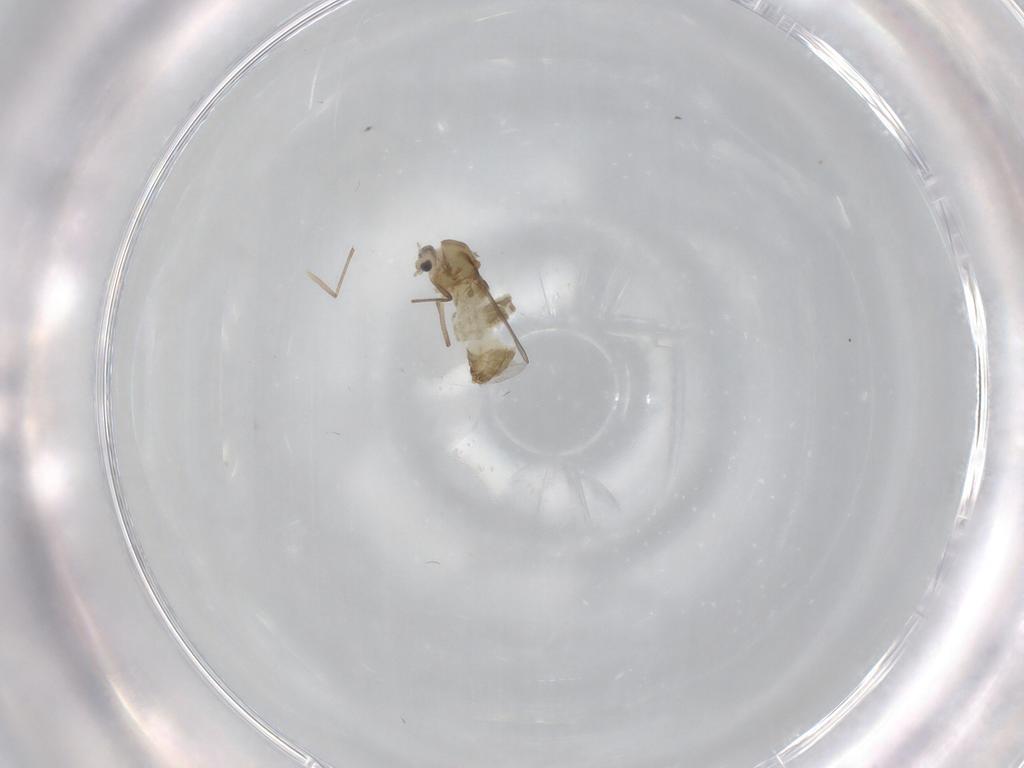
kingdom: Animalia
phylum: Arthropoda
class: Insecta
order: Diptera
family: Chironomidae
